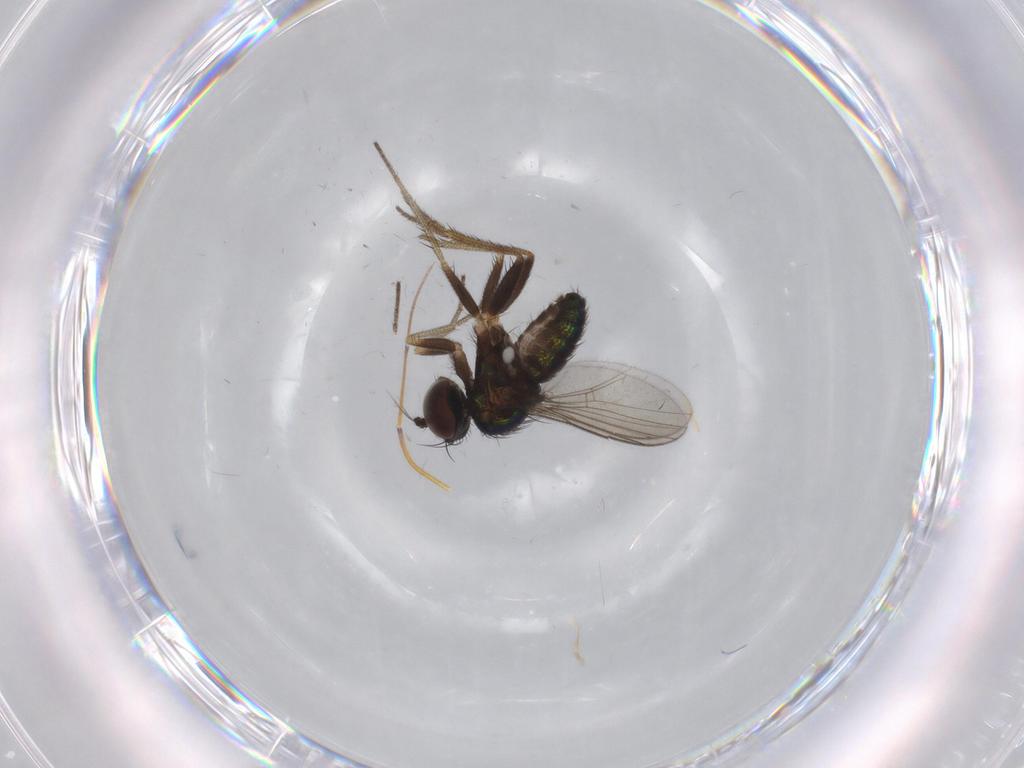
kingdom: Animalia
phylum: Arthropoda
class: Insecta
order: Diptera
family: Dolichopodidae
